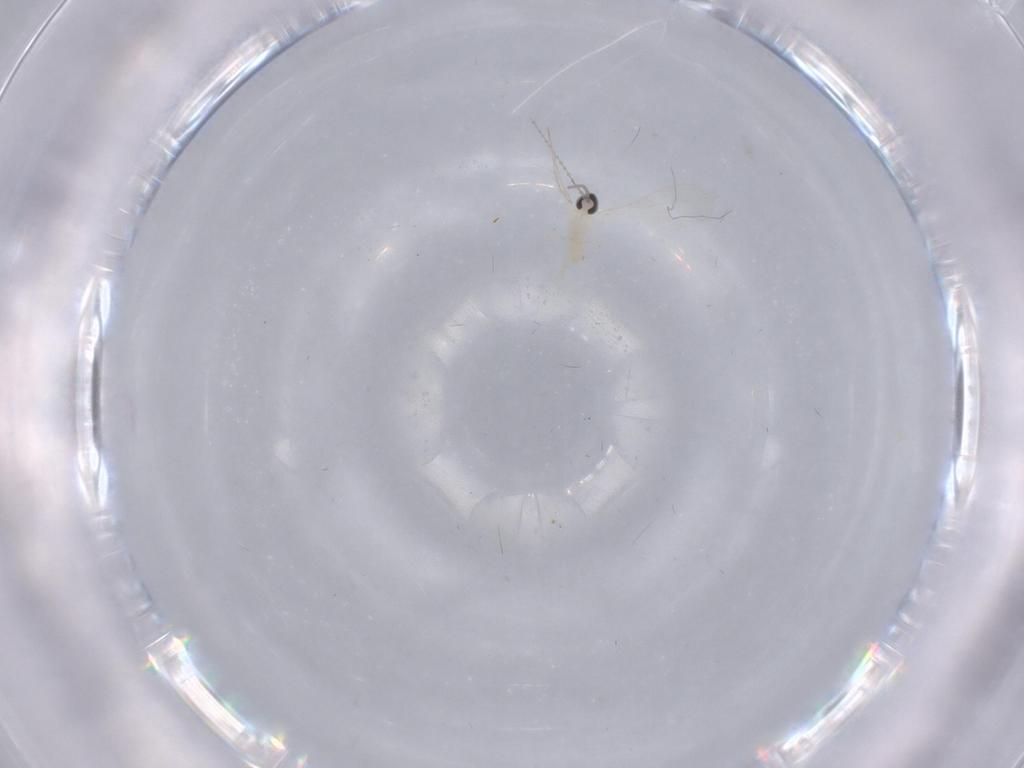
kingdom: Animalia
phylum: Arthropoda
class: Insecta
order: Diptera
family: Cecidomyiidae
